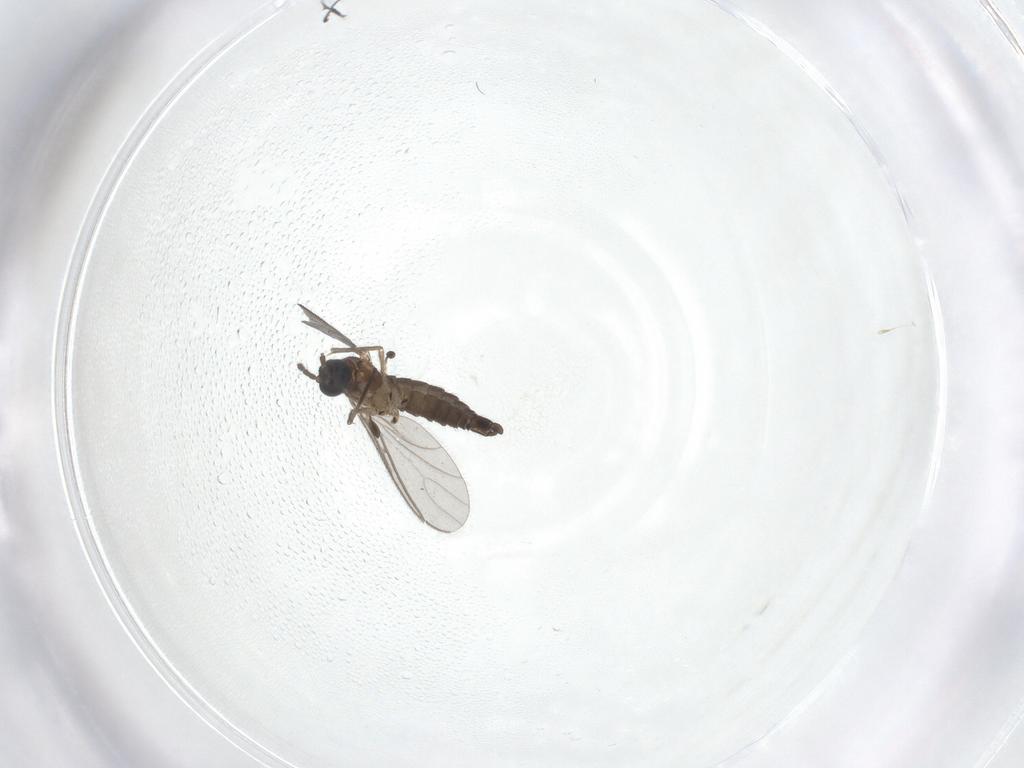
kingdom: Animalia
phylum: Arthropoda
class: Insecta
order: Diptera
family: Sciaridae
